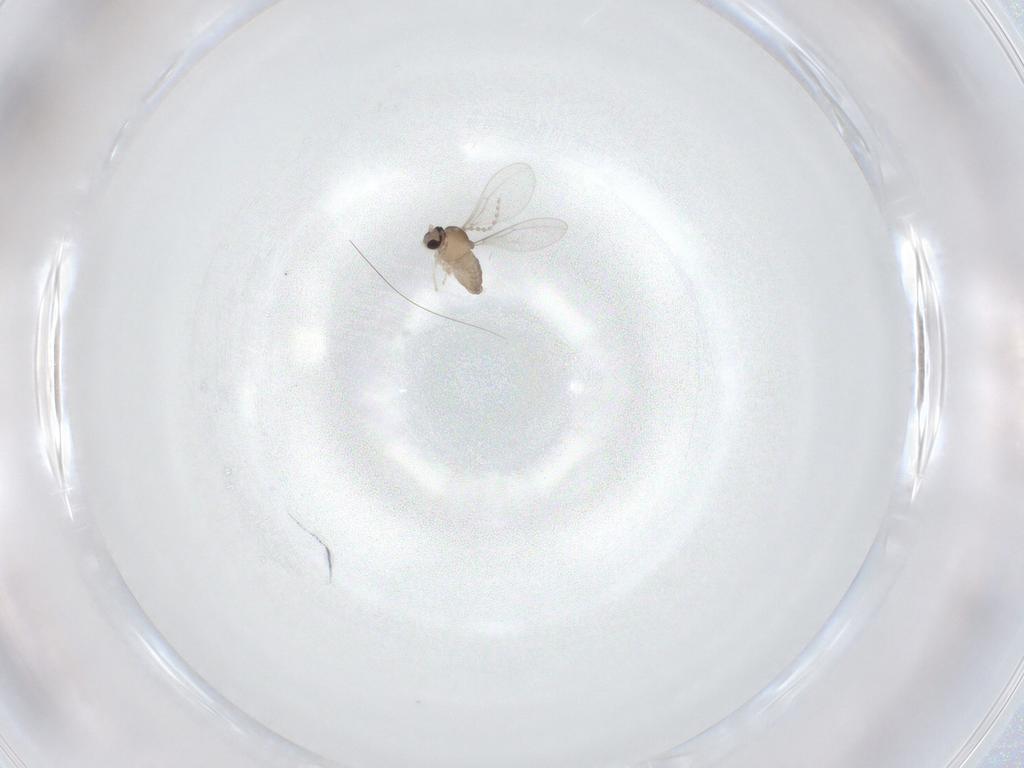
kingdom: Animalia
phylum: Arthropoda
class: Insecta
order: Diptera
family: Cecidomyiidae
